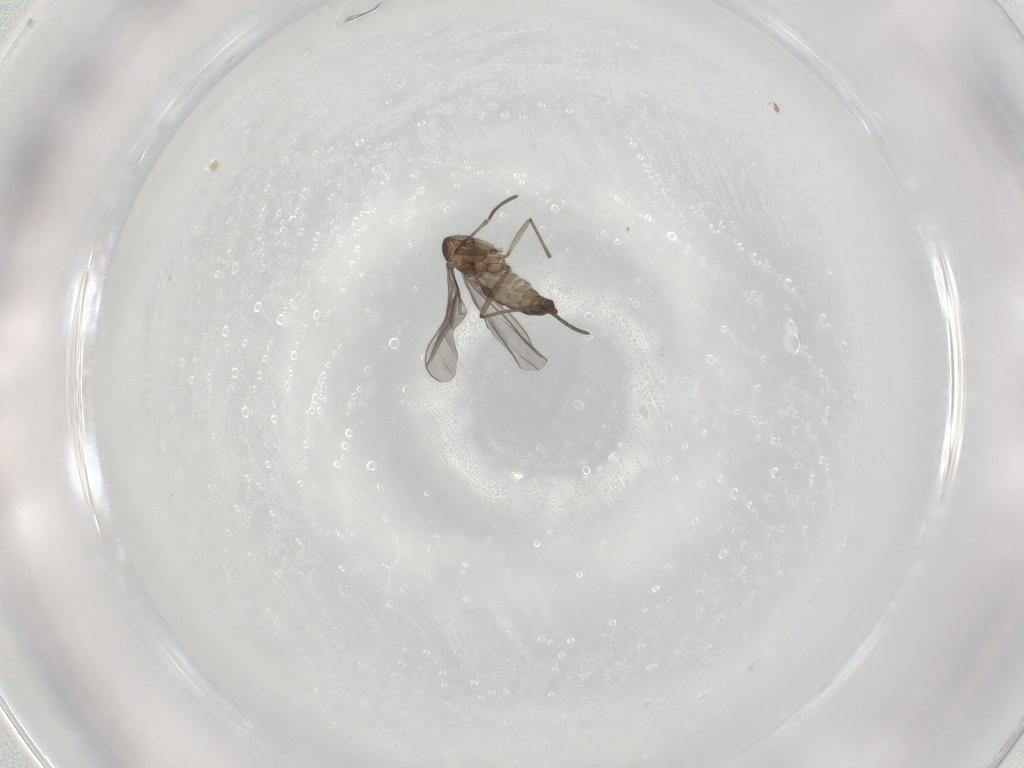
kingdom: Animalia
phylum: Arthropoda
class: Insecta
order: Diptera
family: Sciaridae
